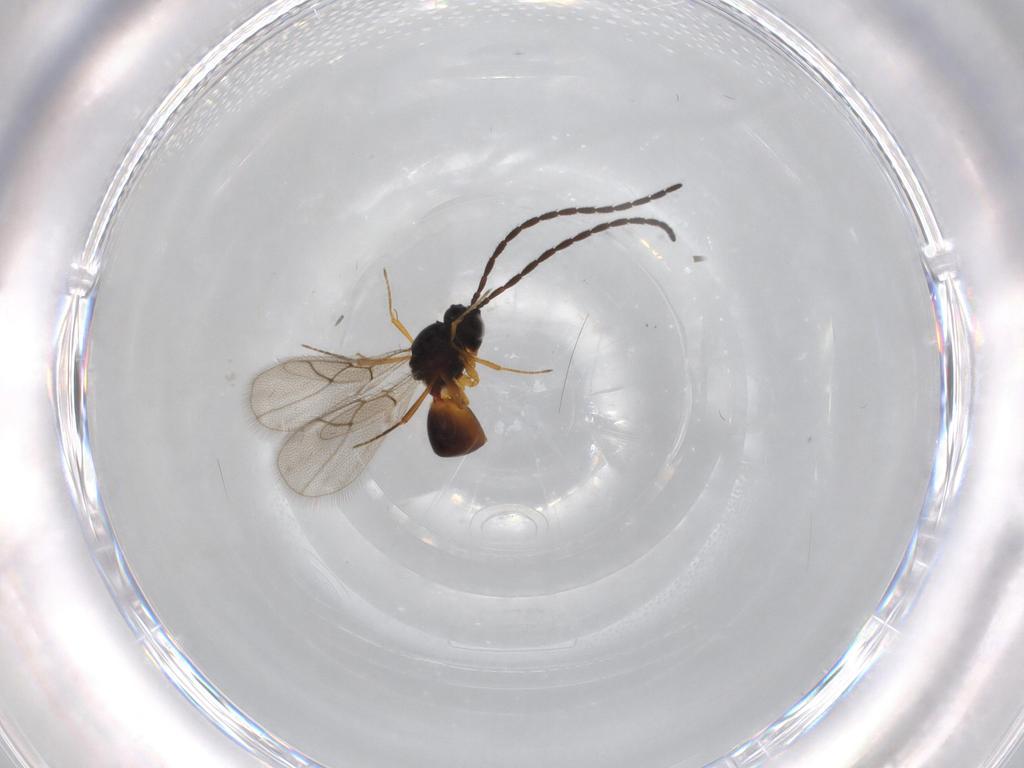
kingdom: Animalia
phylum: Arthropoda
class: Insecta
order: Hymenoptera
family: Figitidae
